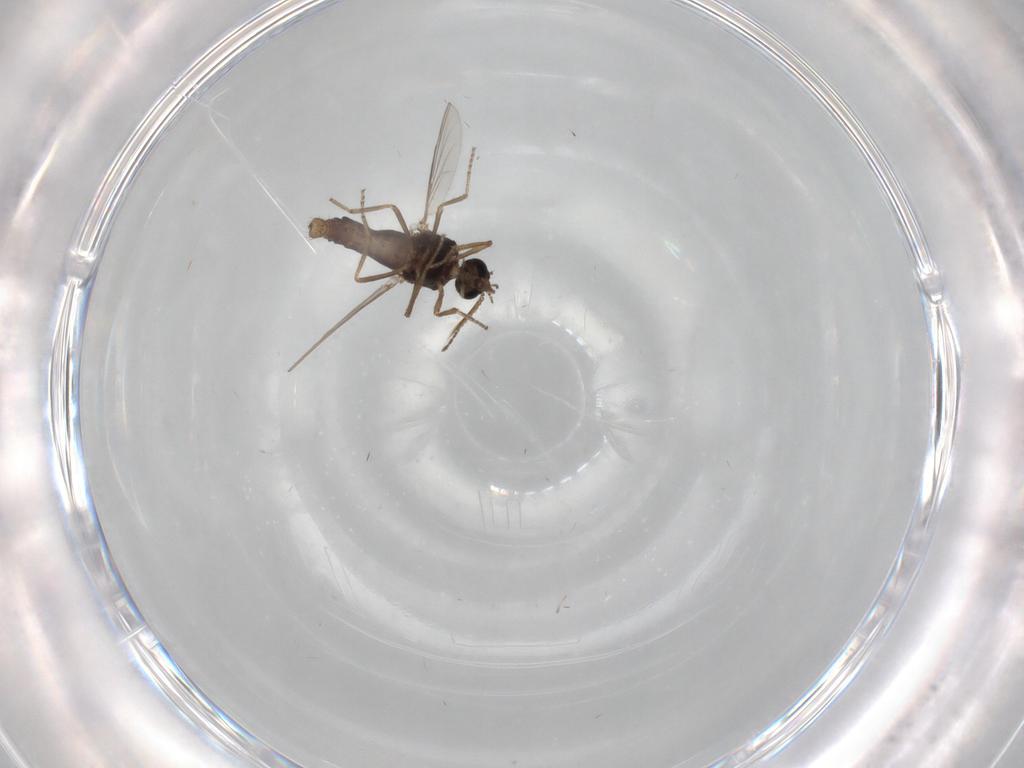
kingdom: Animalia
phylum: Arthropoda
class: Insecta
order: Diptera
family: Ceratopogonidae
